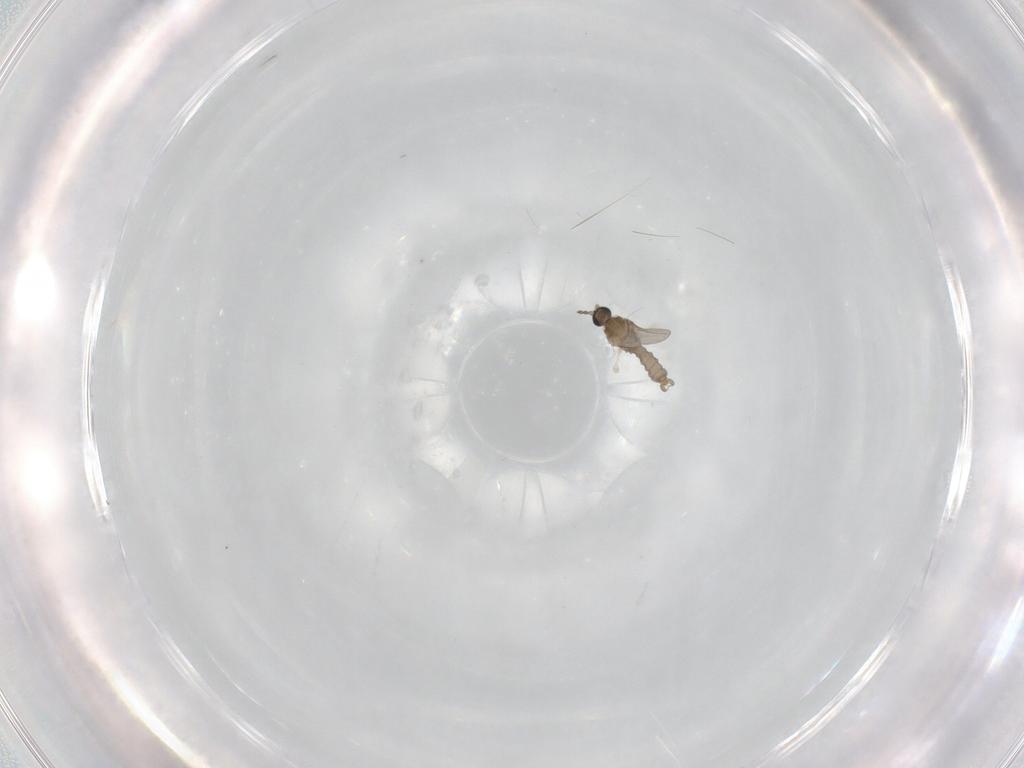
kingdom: Animalia
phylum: Arthropoda
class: Insecta
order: Diptera
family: Cecidomyiidae
